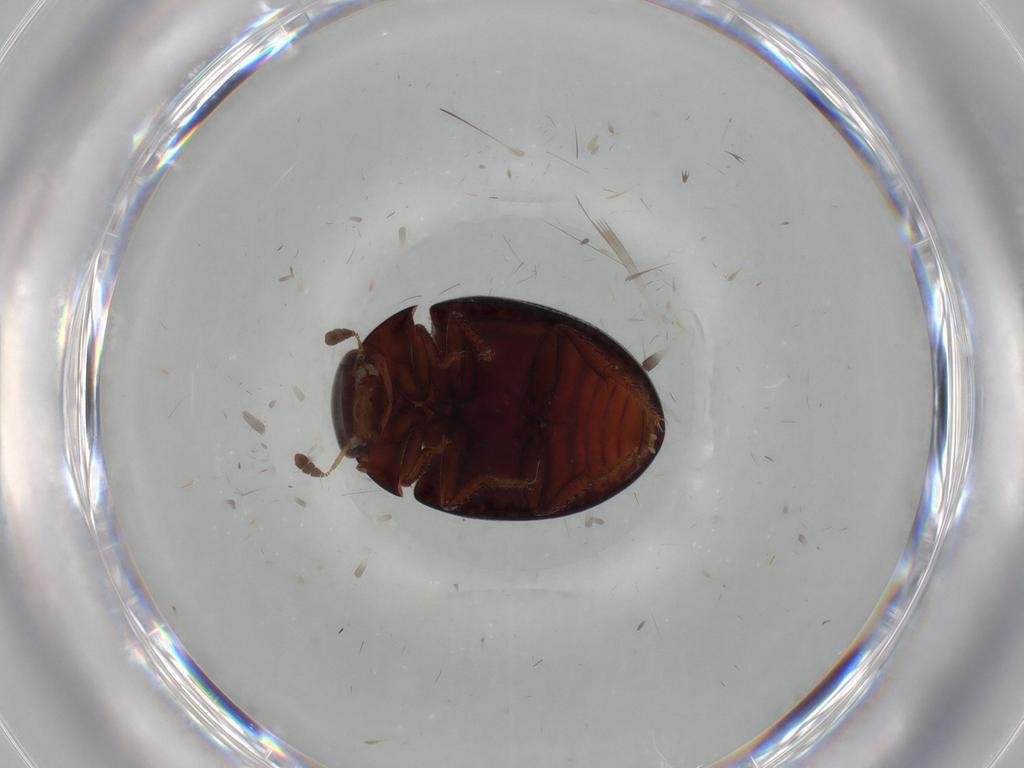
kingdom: Animalia
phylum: Arthropoda
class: Insecta
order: Coleoptera
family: Hydrophilidae
